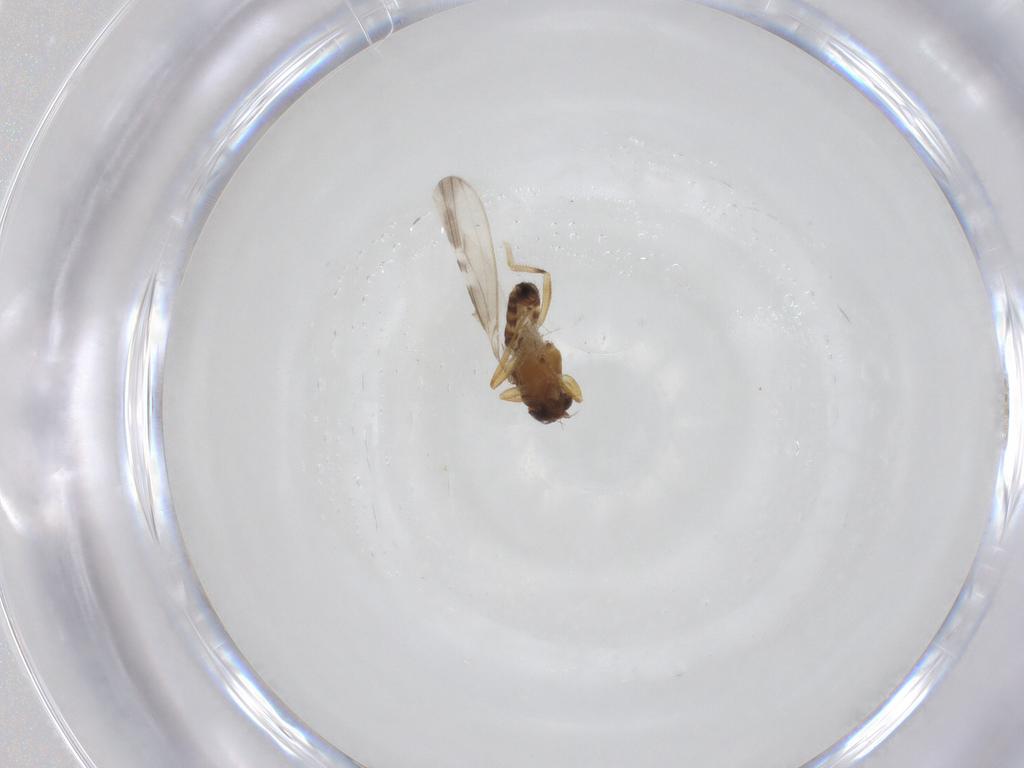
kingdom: Animalia
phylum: Arthropoda
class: Insecta
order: Diptera
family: Periscelididae
